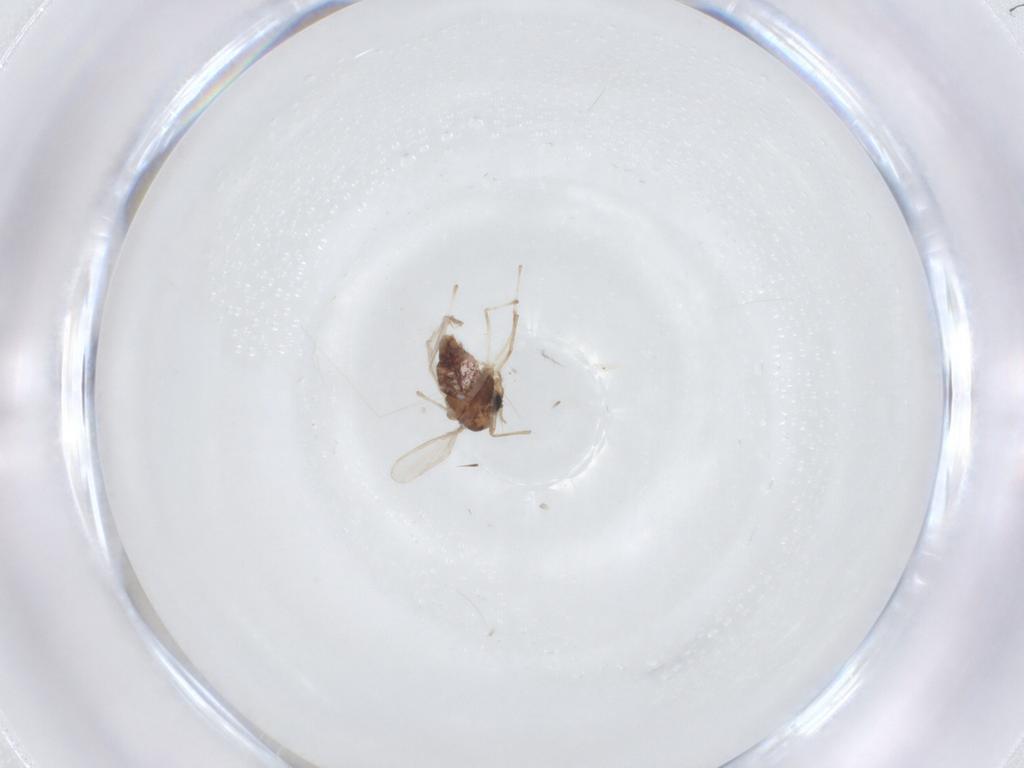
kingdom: Animalia
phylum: Arthropoda
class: Insecta
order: Diptera
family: Chironomidae
